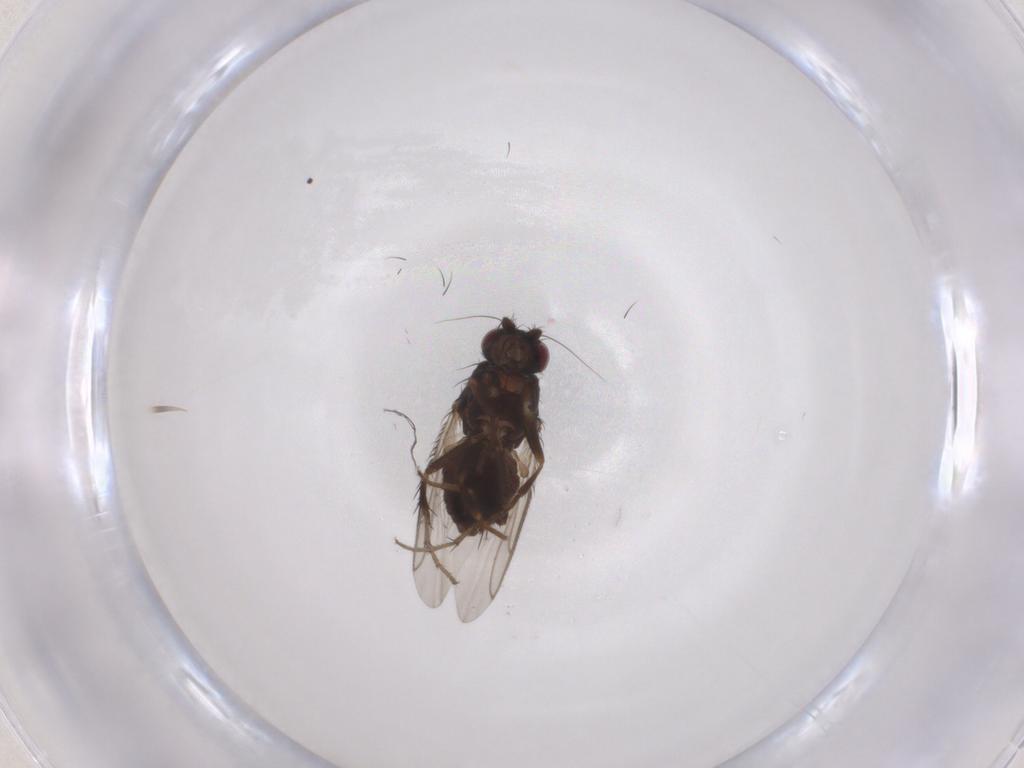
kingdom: Animalia
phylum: Arthropoda
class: Insecta
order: Diptera
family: Sphaeroceridae
